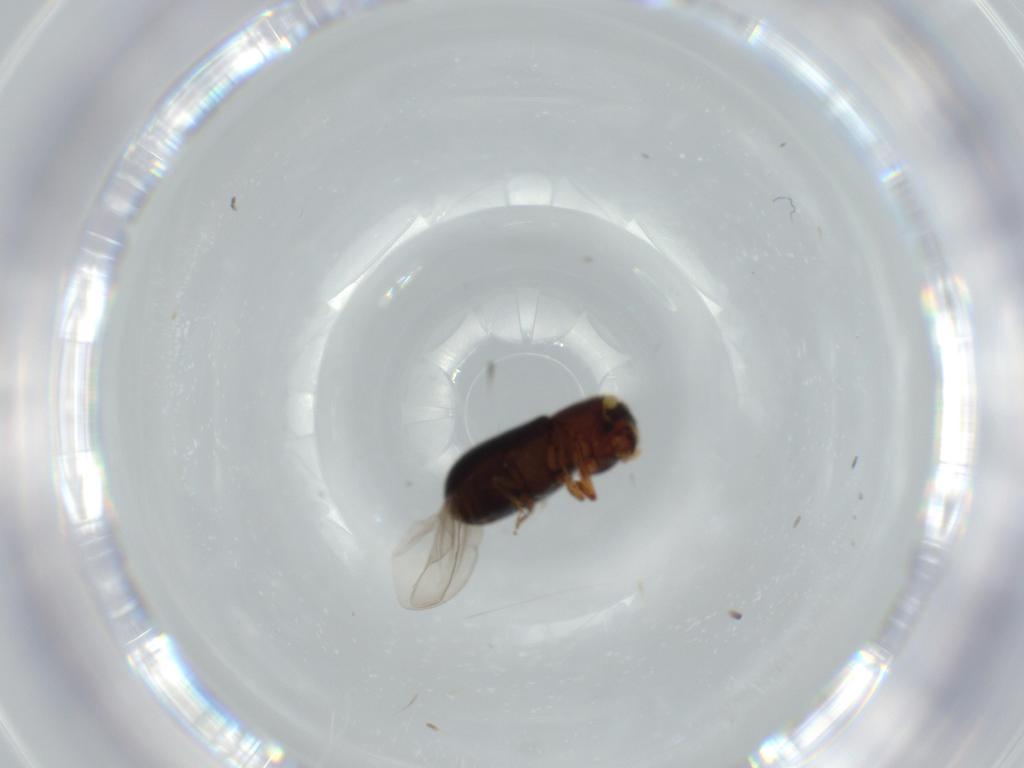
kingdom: Animalia
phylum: Arthropoda
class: Insecta
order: Coleoptera
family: Curculionidae
